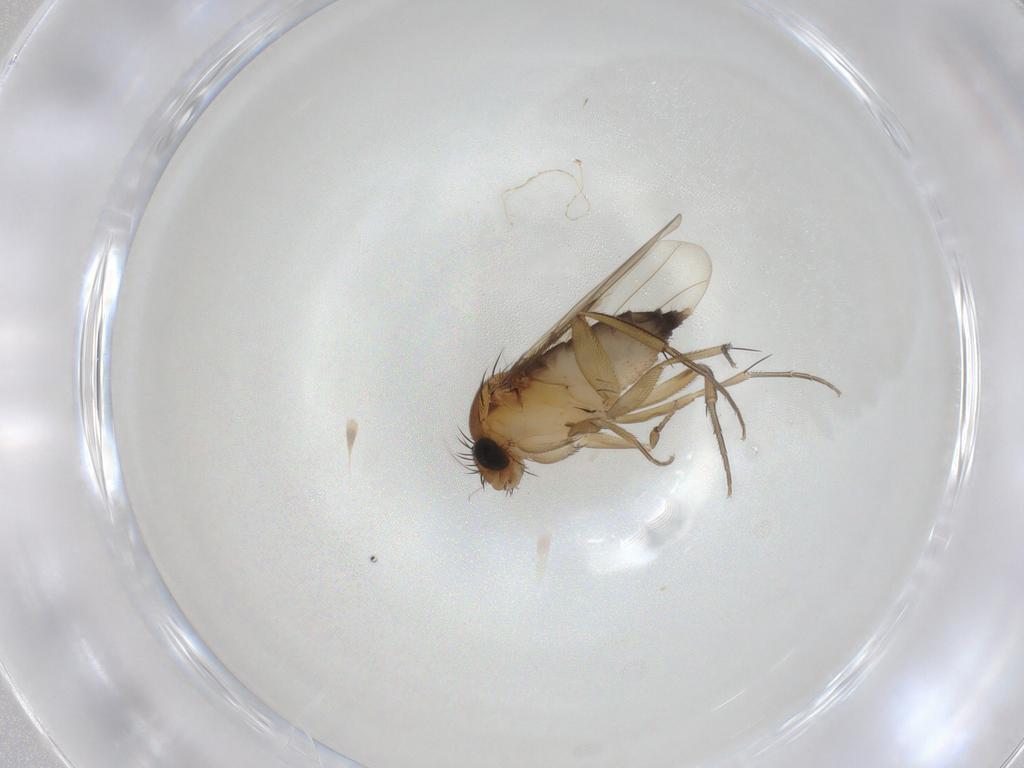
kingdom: Animalia
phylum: Arthropoda
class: Insecta
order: Diptera
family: Phoridae
